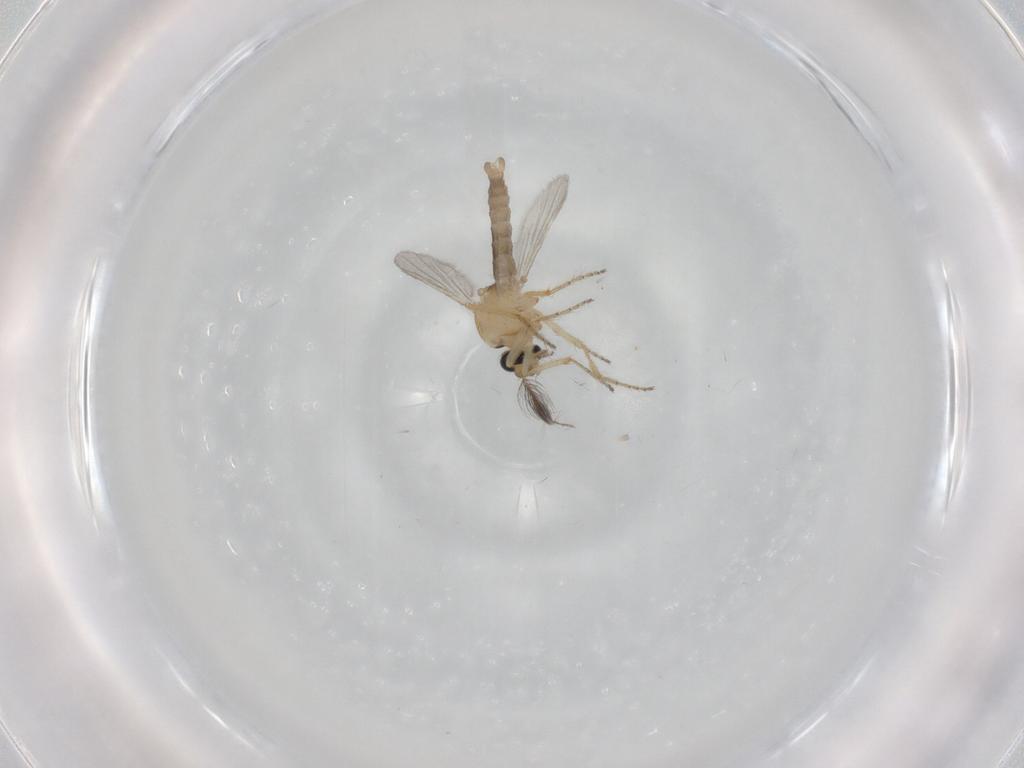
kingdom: Animalia
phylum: Arthropoda
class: Insecta
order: Diptera
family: Ceratopogonidae
